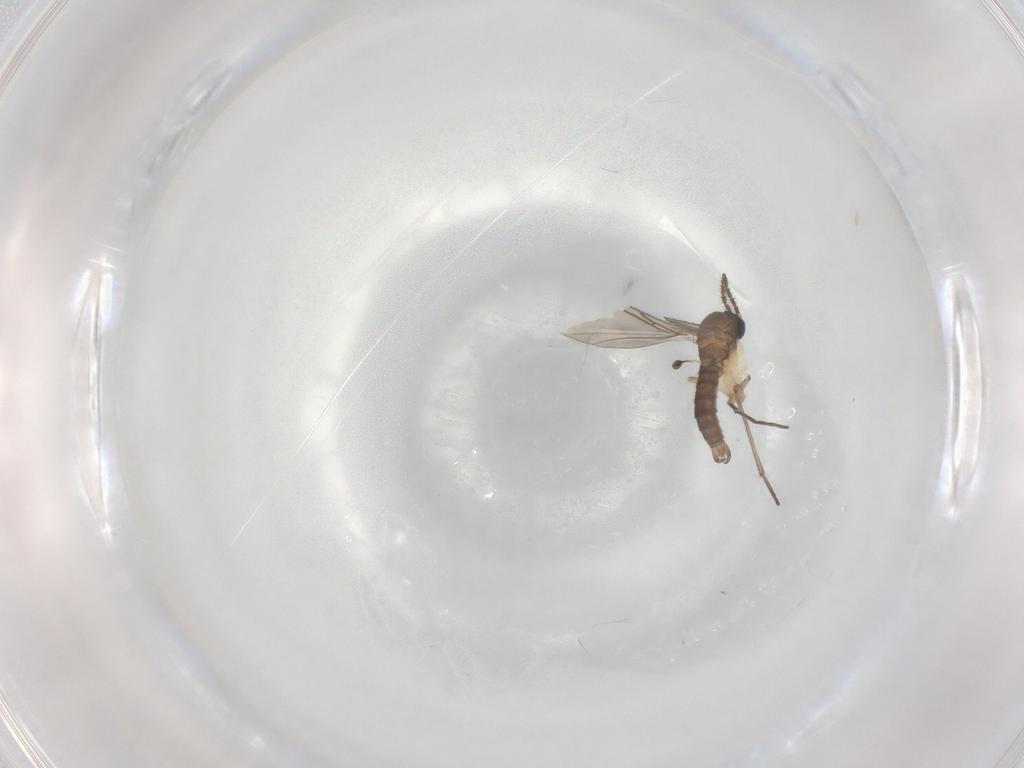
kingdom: Animalia
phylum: Arthropoda
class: Insecta
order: Diptera
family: Sciaridae
